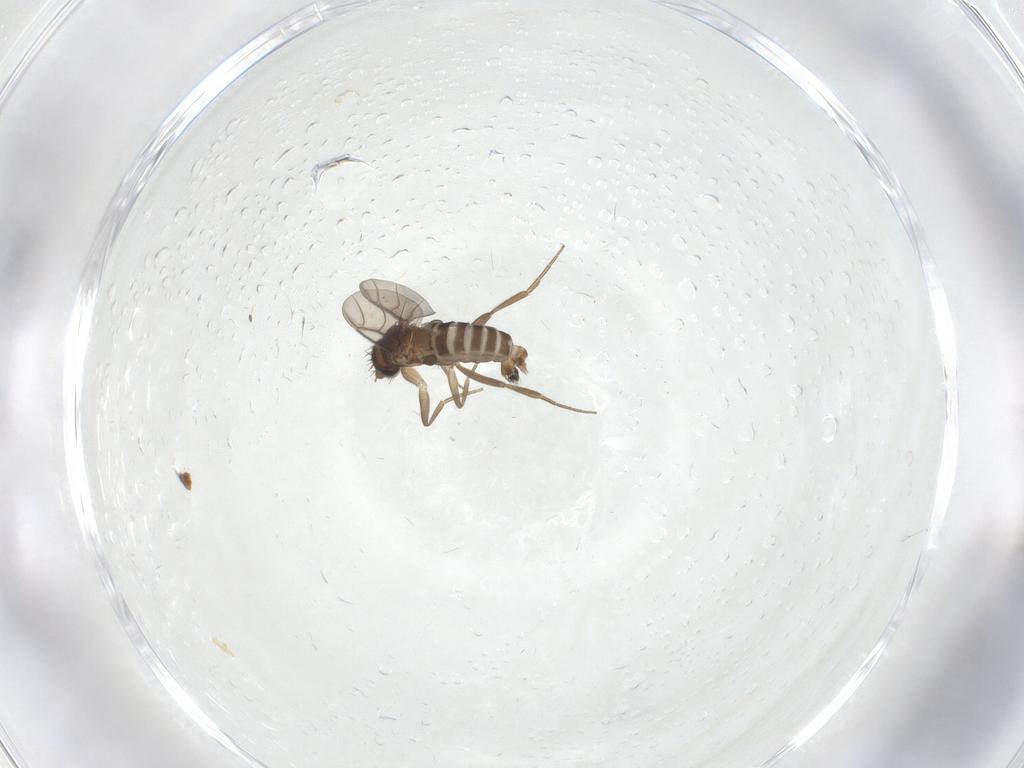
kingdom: Animalia
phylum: Arthropoda
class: Insecta
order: Diptera
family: Phoridae
